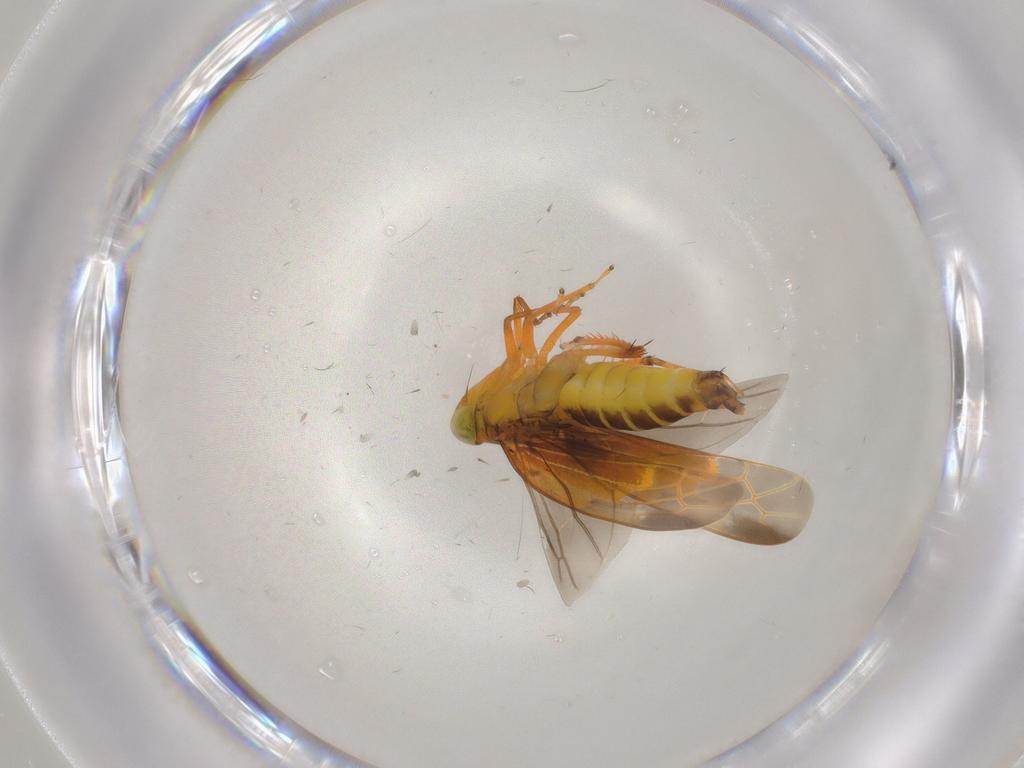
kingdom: Animalia
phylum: Arthropoda
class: Insecta
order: Hemiptera
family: Cicadellidae
